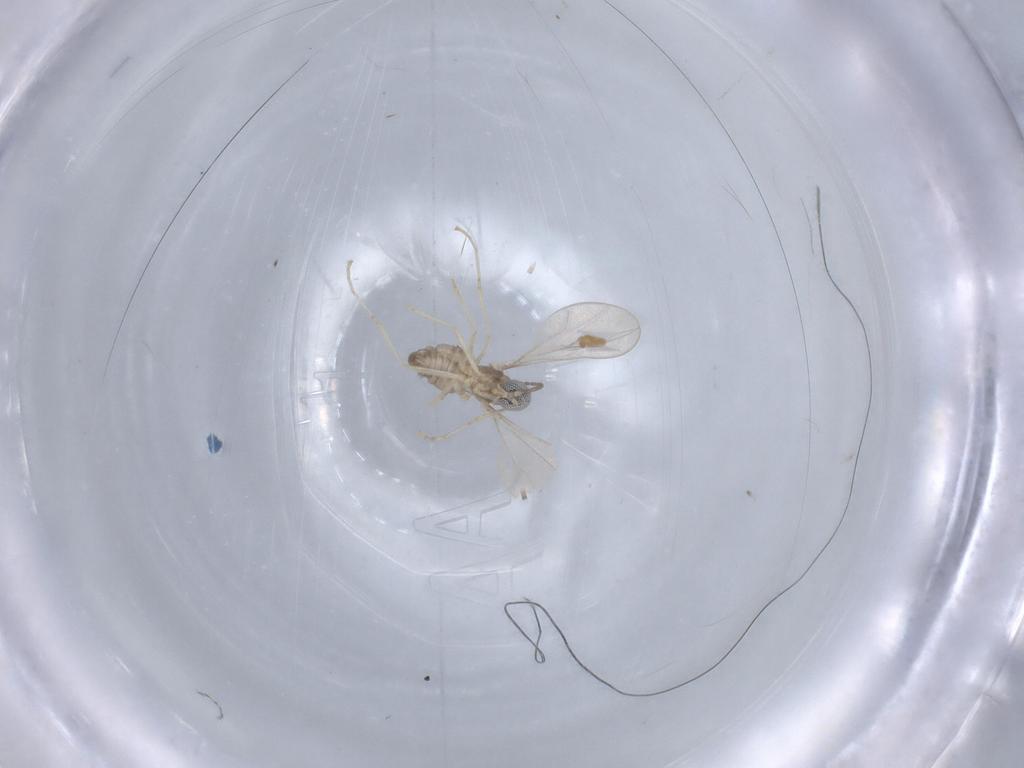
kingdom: Animalia
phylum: Arthropoda
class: Insecta
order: Diptera
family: Cecidomyiidae
